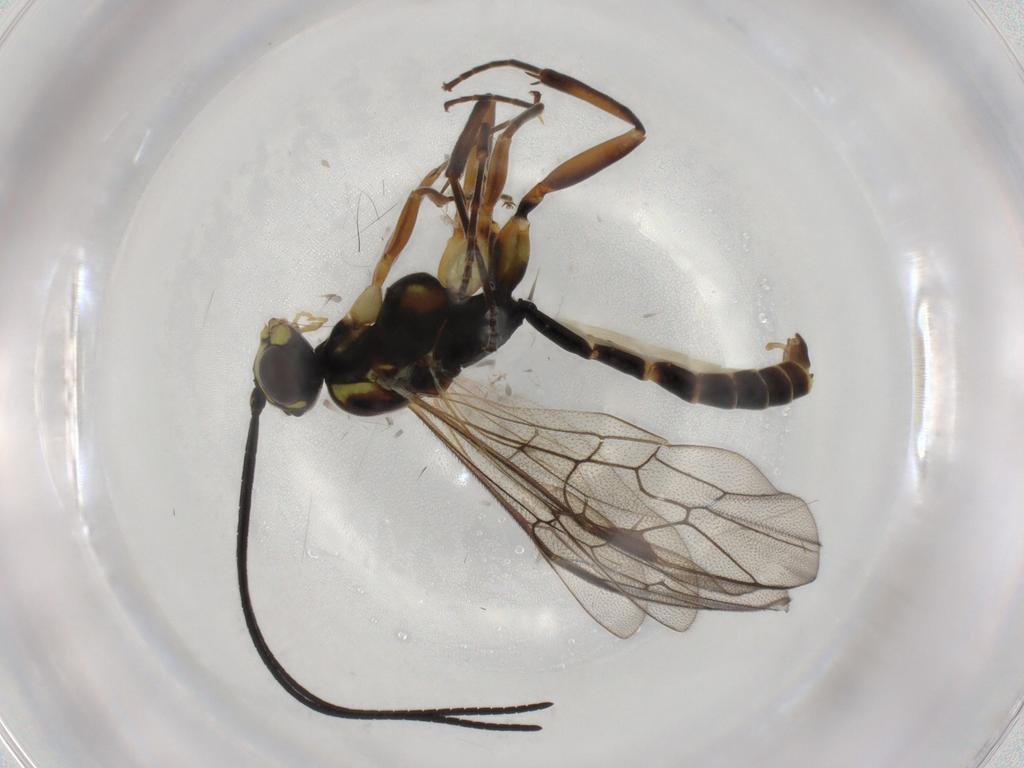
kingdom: Animalia
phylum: Arthropoda
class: Insecta
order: Hymenoptera
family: Ichneumonidae
